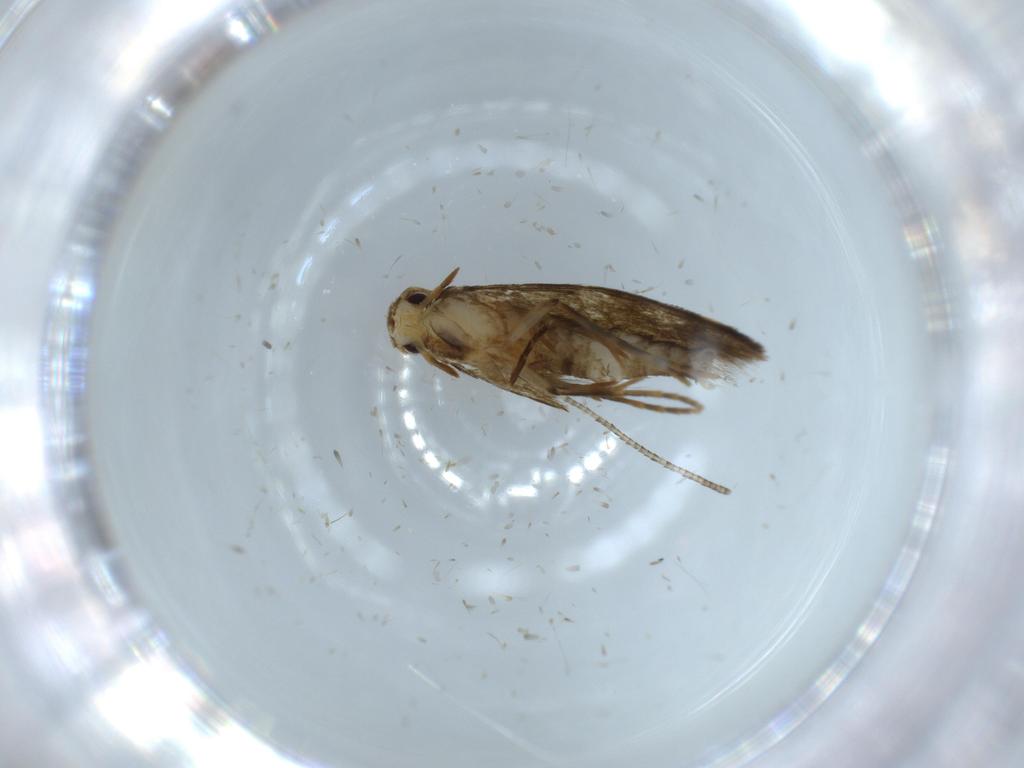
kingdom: Animalia
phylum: Arthropoda
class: Insecta
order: Lepidoptera
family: Tineidae
